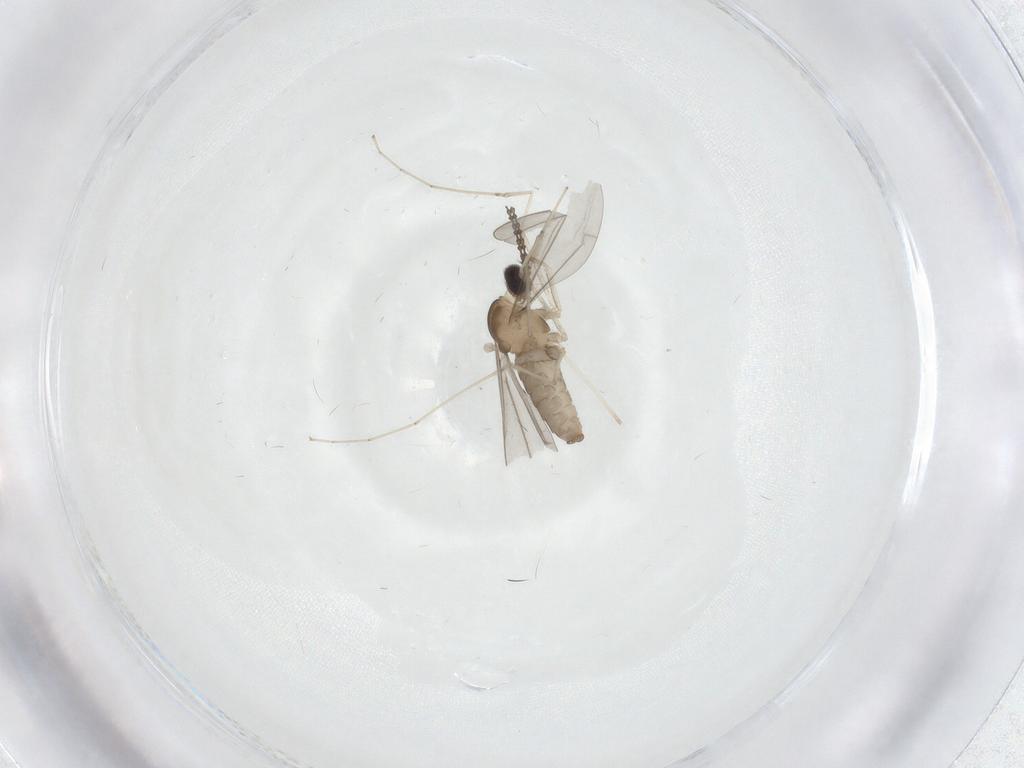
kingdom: Animalia
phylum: Arthropoda
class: Insecta
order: Diptera
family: Cecidomyiidae
